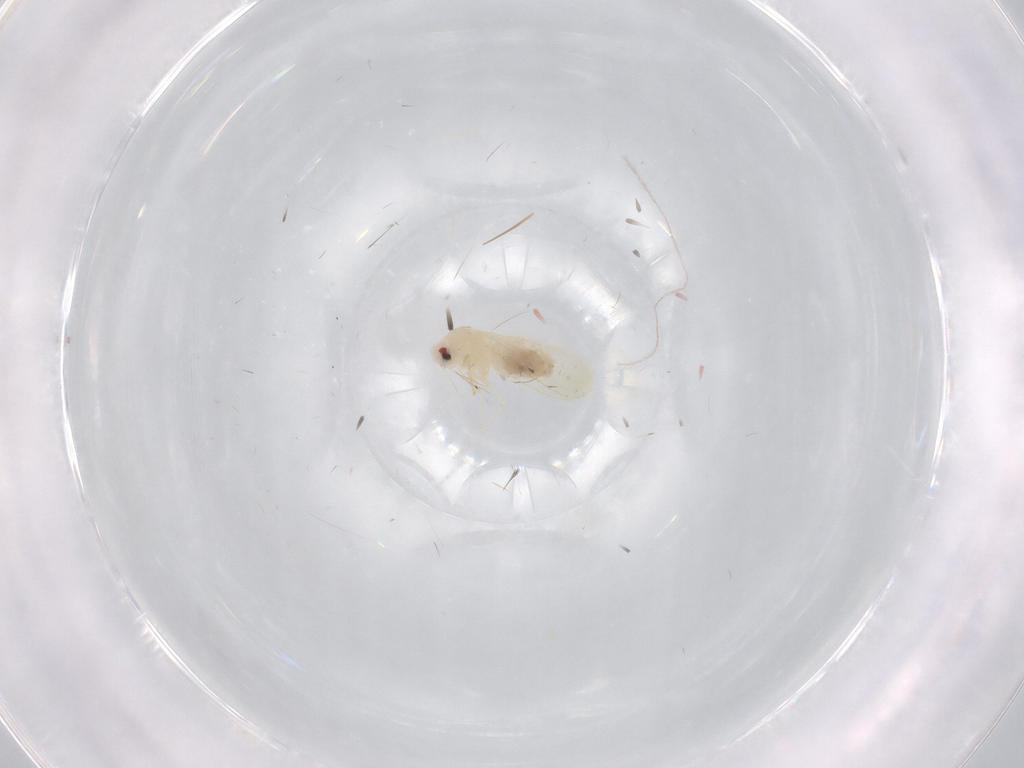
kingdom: Animalia
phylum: Arthropoda
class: Insecta
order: Hemiptera
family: Aleyrodidae
